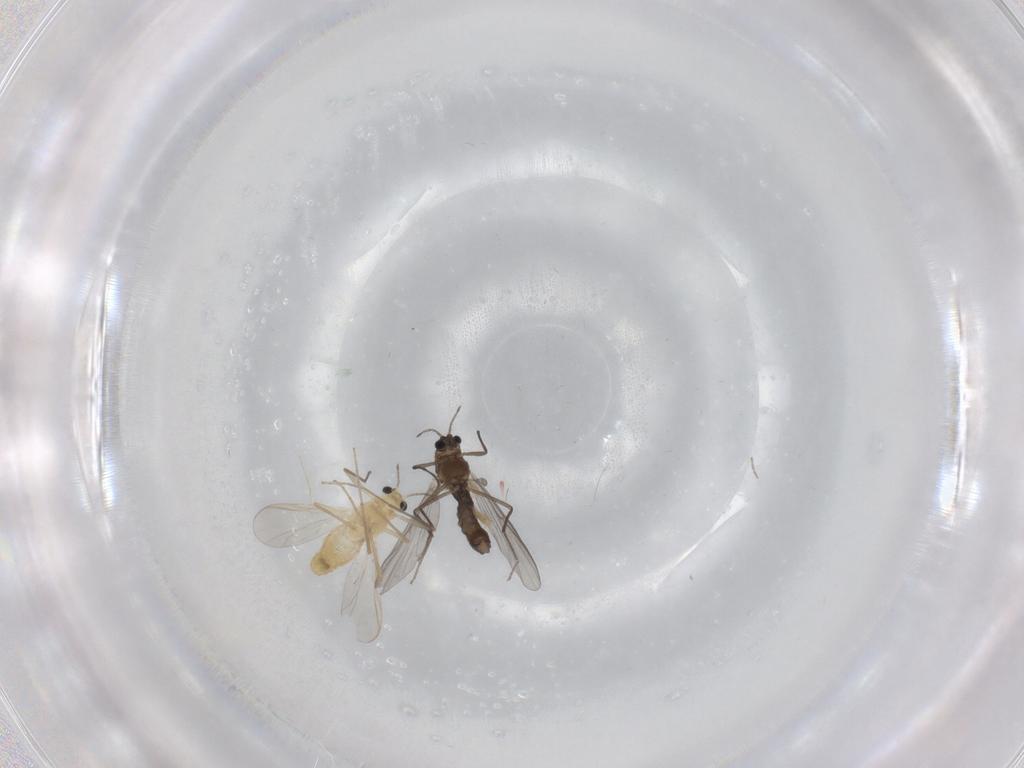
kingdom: Animalia
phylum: Arthropoda
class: Insecta
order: Diptera
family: Chironomidae
